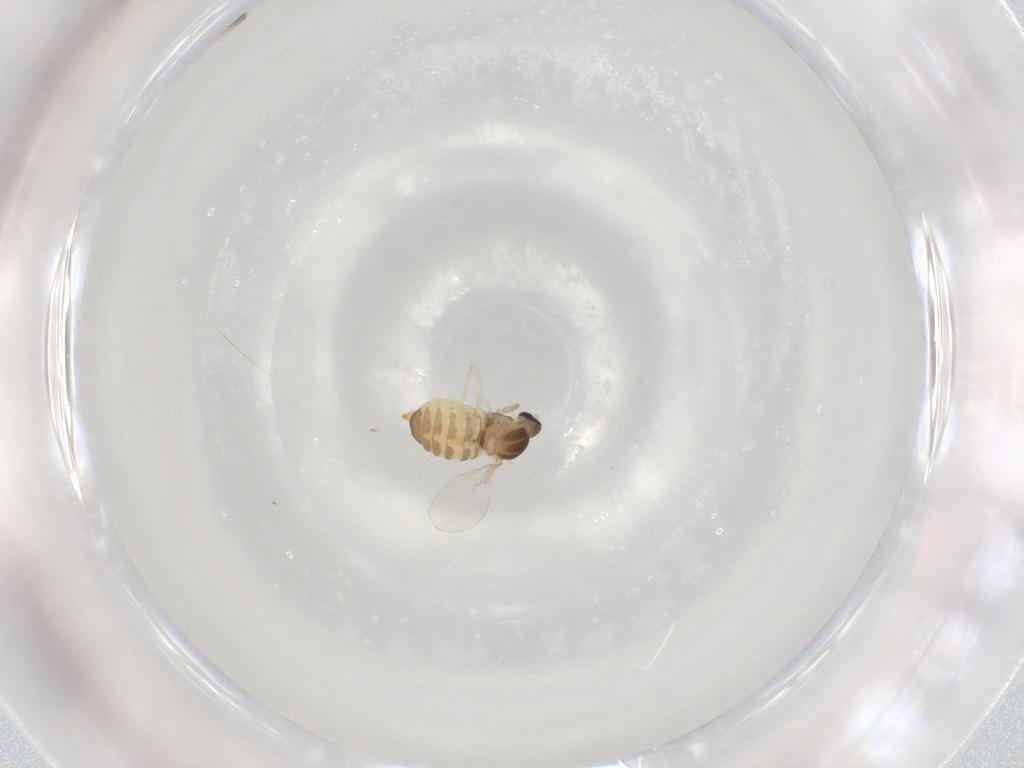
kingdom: Animalia
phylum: Arthropoda
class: Insecta
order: Diptera
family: Cecidomyiidae
